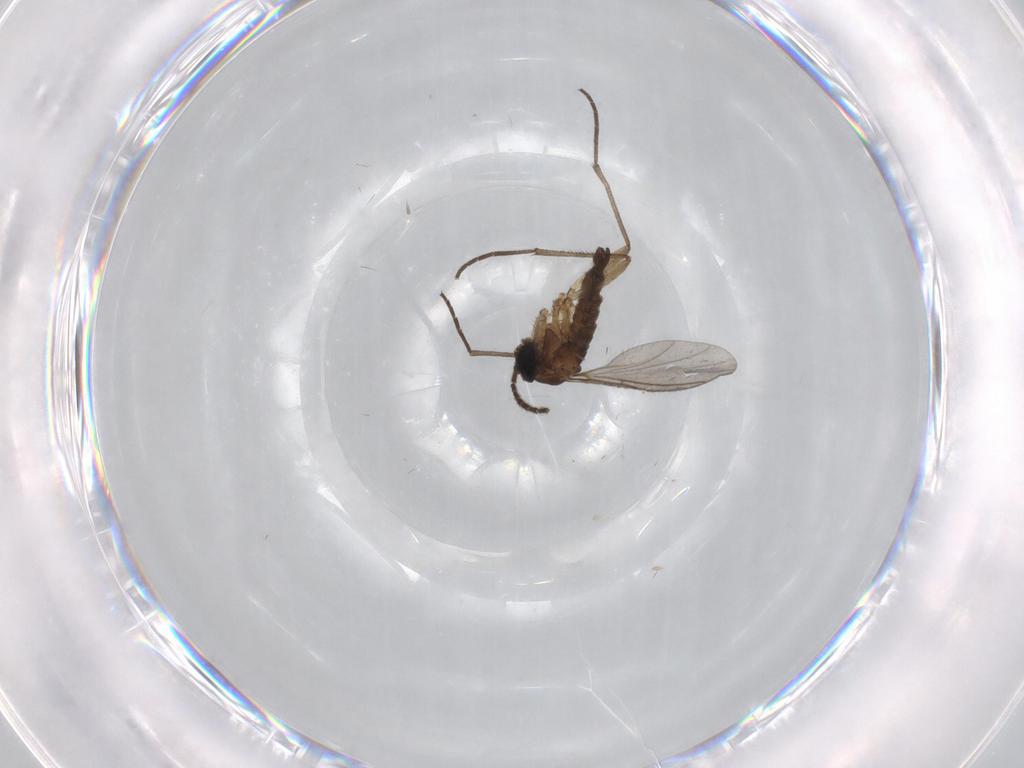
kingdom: Animalia
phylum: Arthropoda
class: Insecta
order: Diptera
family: Sciaridae
